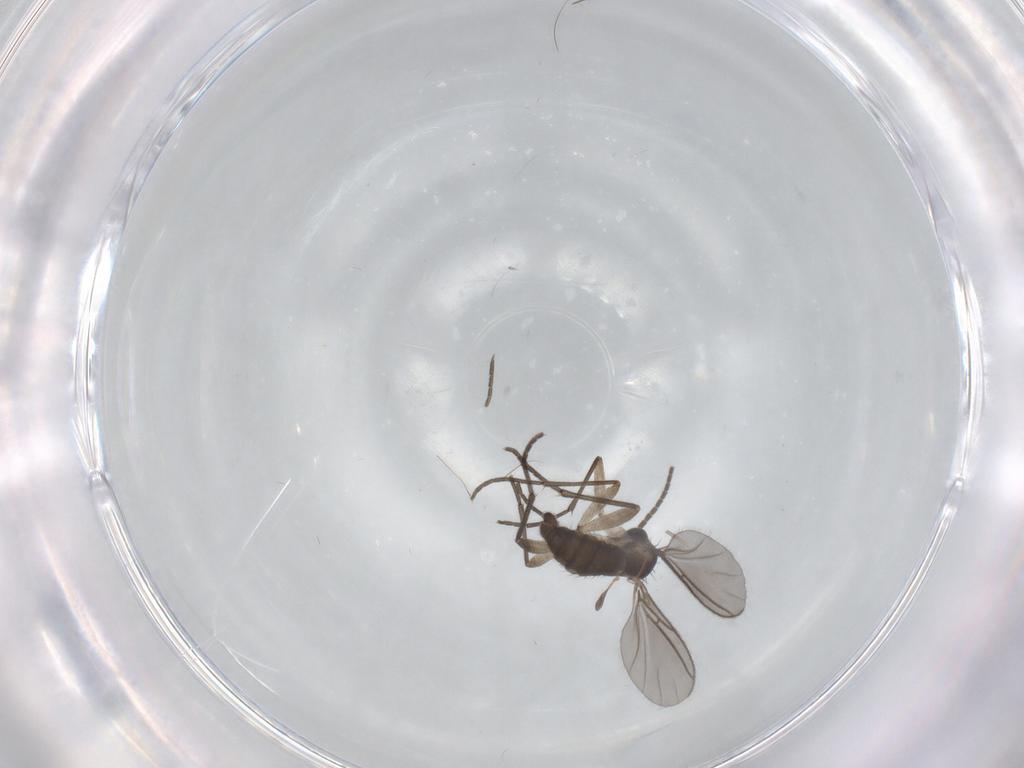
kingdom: Animalia
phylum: Arthropoda
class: Insecta
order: Diptera
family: Sciaridae
